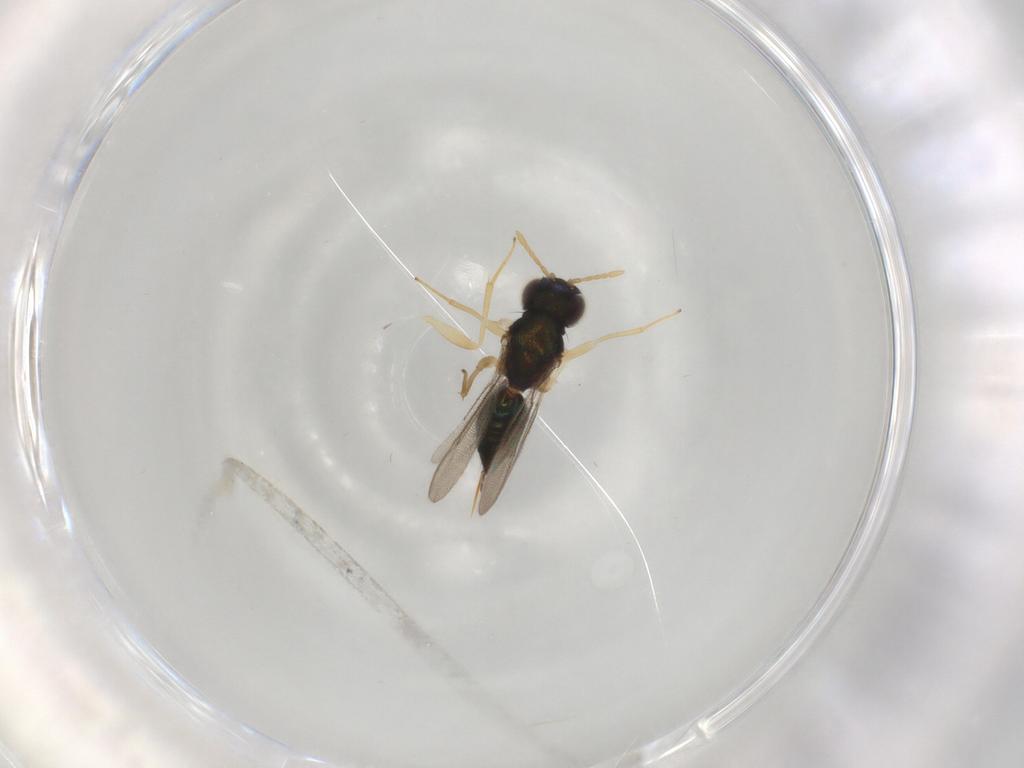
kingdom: Animalia
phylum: Arthropoda
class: Insecta
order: Hymenoptera
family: Eulophidae
